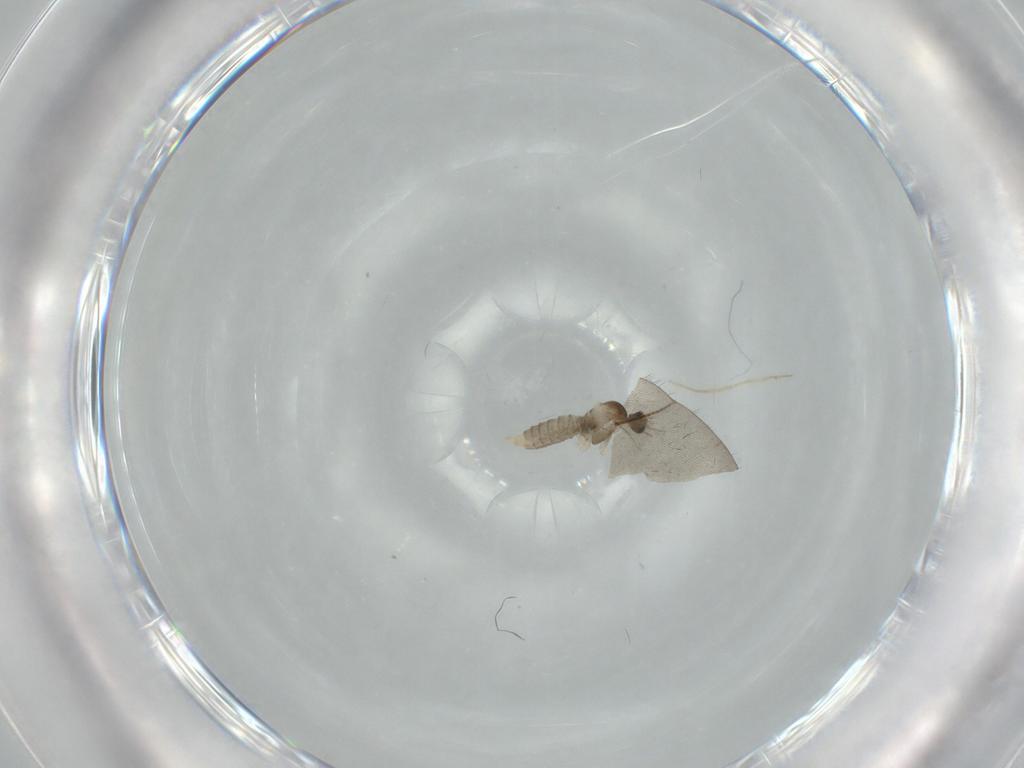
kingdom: Animalia
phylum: Arthropoda
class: Insecta
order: Diptera
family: Cecidomyiidae
